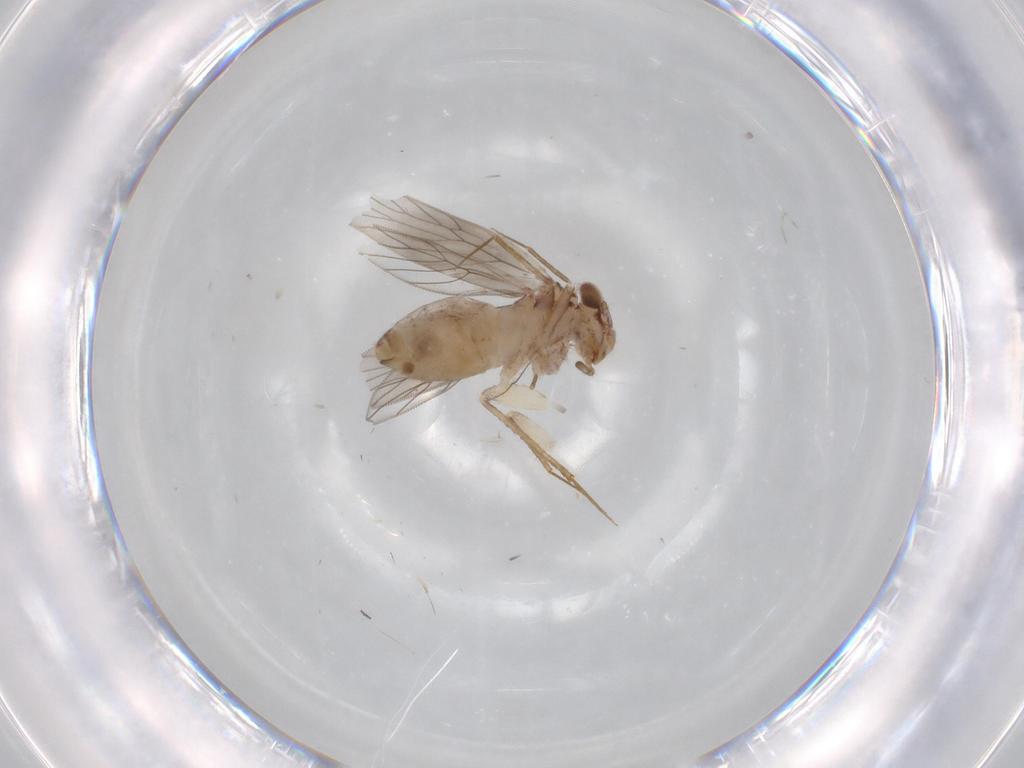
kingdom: Animalia
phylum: Arthropoda
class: Insecta
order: Psocodea
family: Lepidopsocidae
